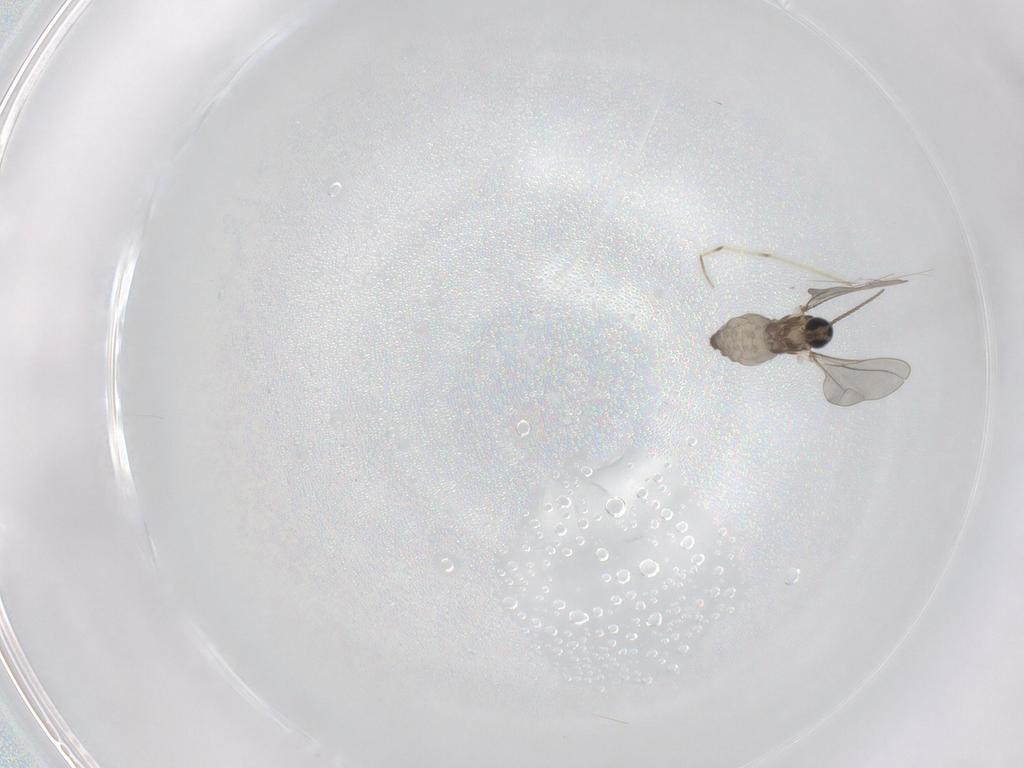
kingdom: Animalia
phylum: Arthropoda
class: Insecta
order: Diptera
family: Cecidomyiidae
